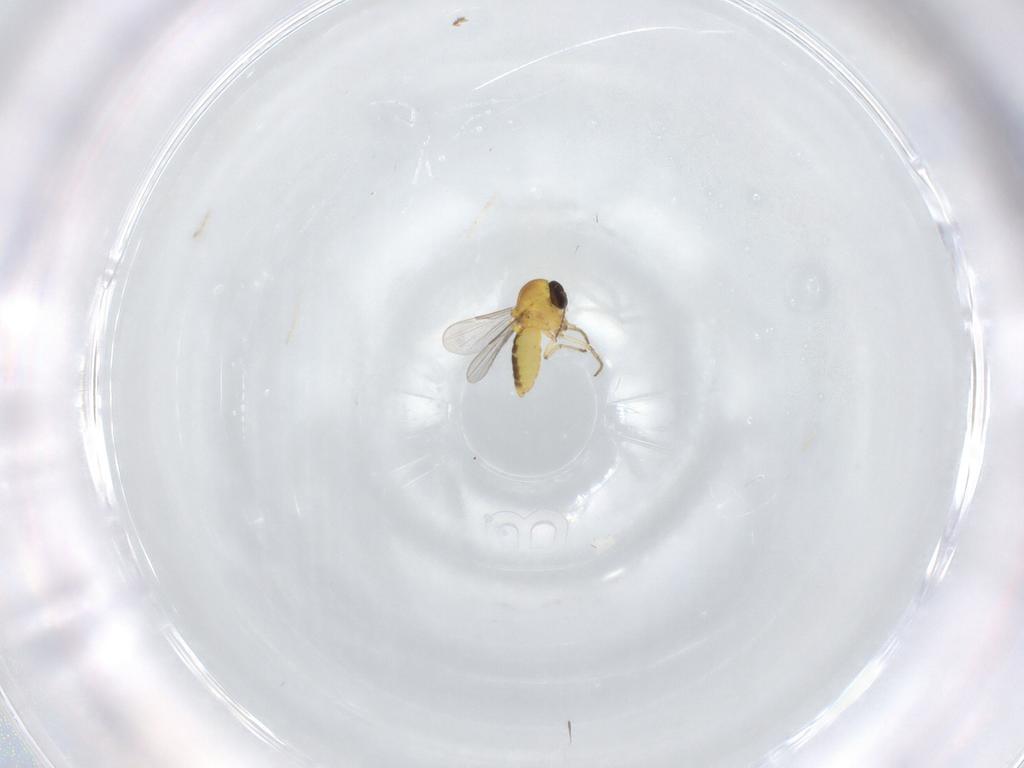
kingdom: Animalia
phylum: Arthropoda
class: Insecta
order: Diptera
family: Ceratopogonidae
